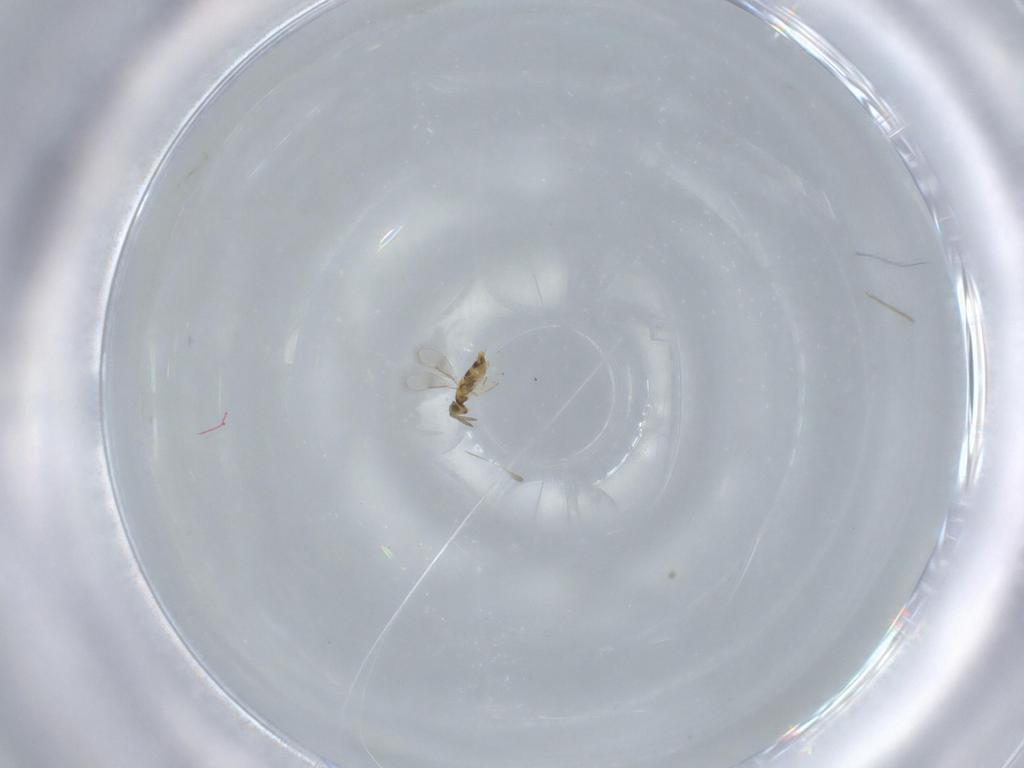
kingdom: Animalia
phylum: Arthropoda
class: Insecta
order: Hymenoptera
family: Aphelinidae
